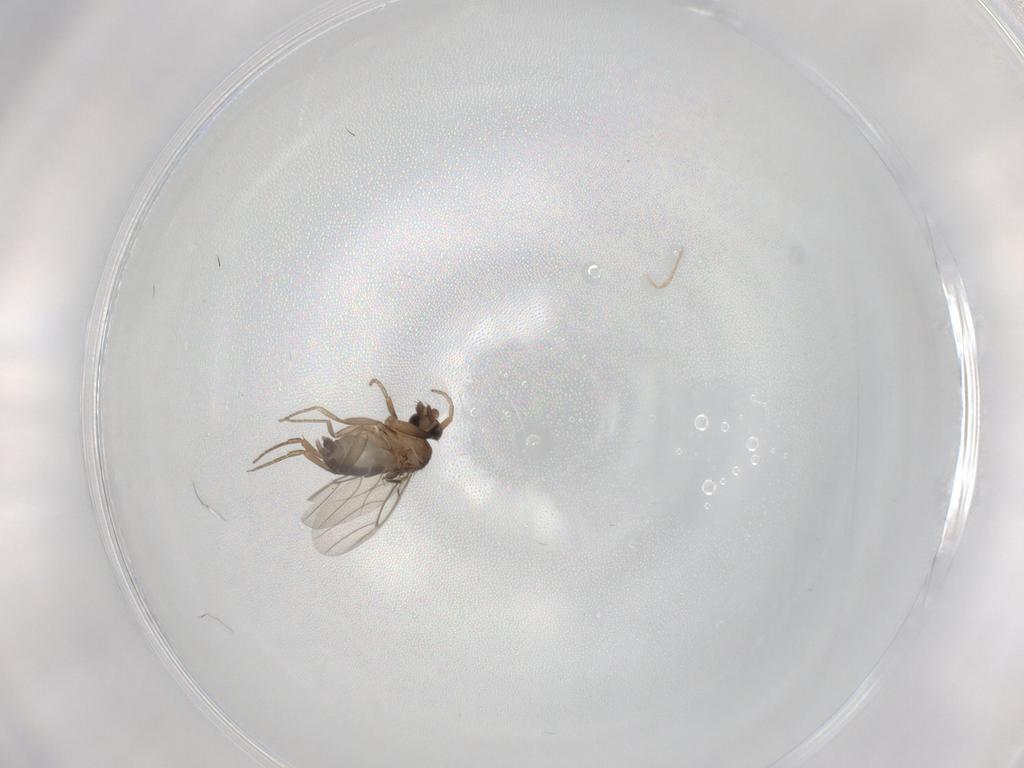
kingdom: Animalia
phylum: Arthropoda
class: Insecta
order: Diptera
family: Phoridae
